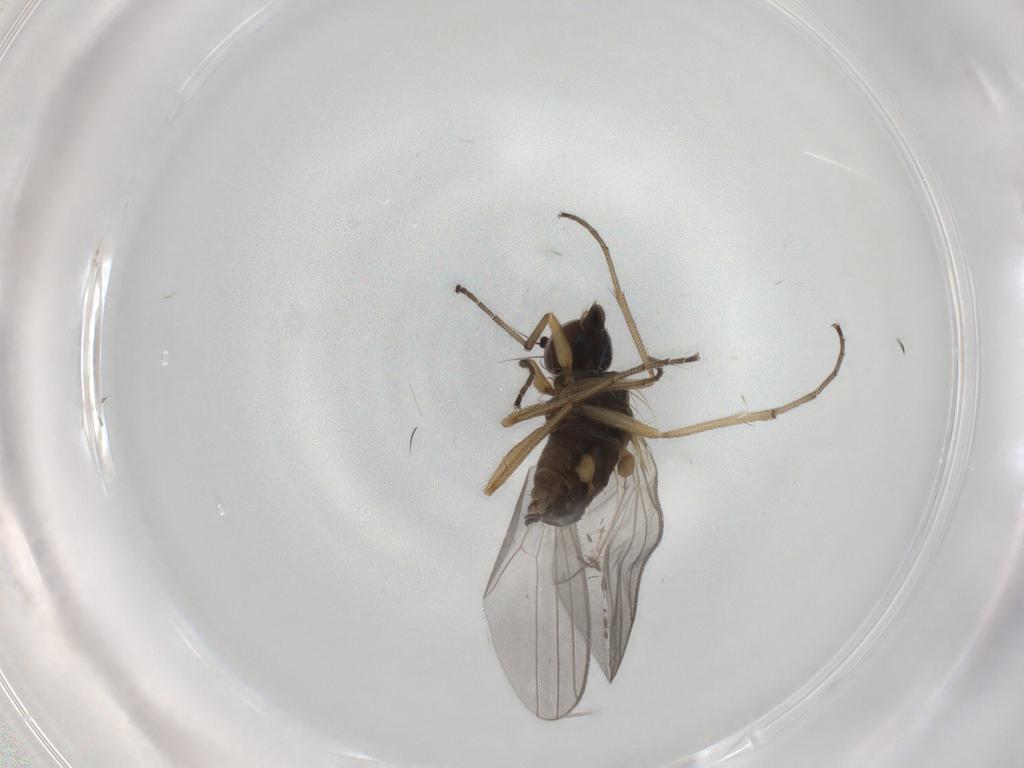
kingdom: Animalia
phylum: Arthropoda
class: Insecta
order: Diptera
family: Dolichopodidae
